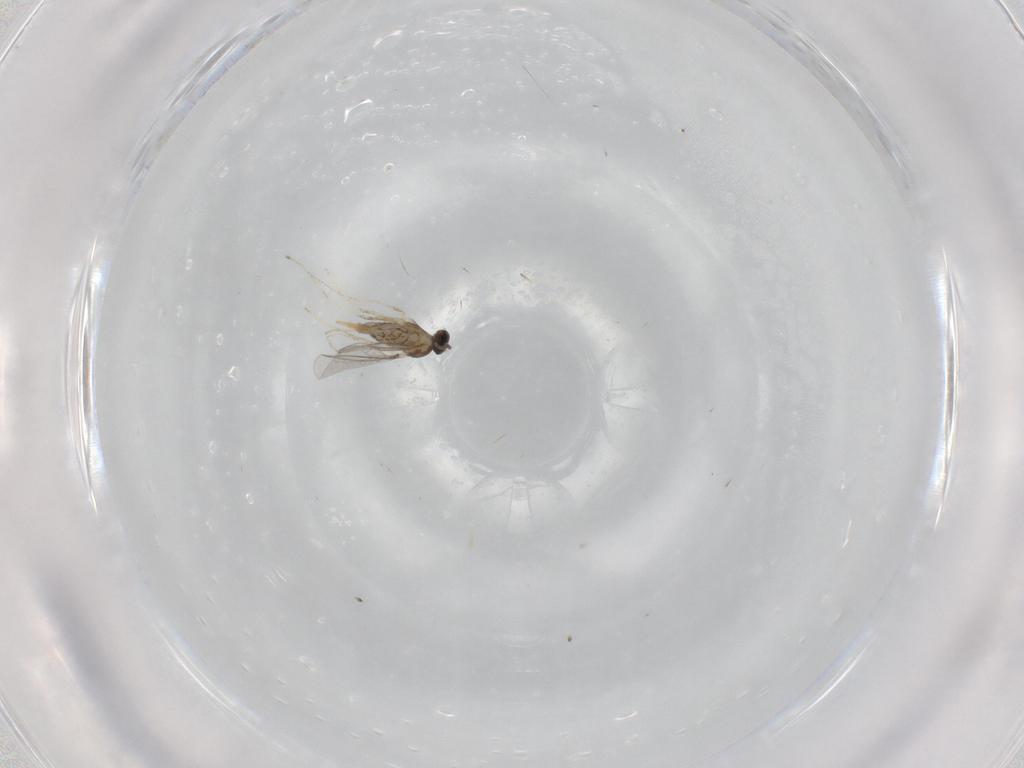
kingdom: Animalia
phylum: Arthropoda
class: Insecta
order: Diptera
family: Cecidomyiidae
